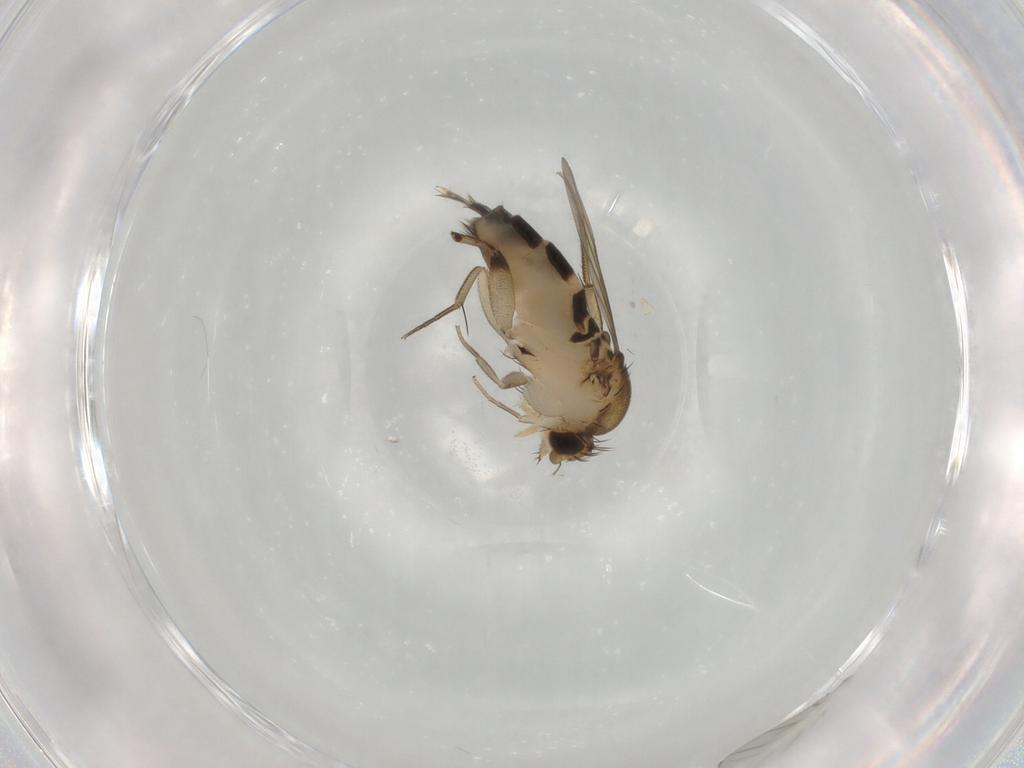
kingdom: Animalia
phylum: Arthropoda
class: Insecta
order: Diptera
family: Phoridae
